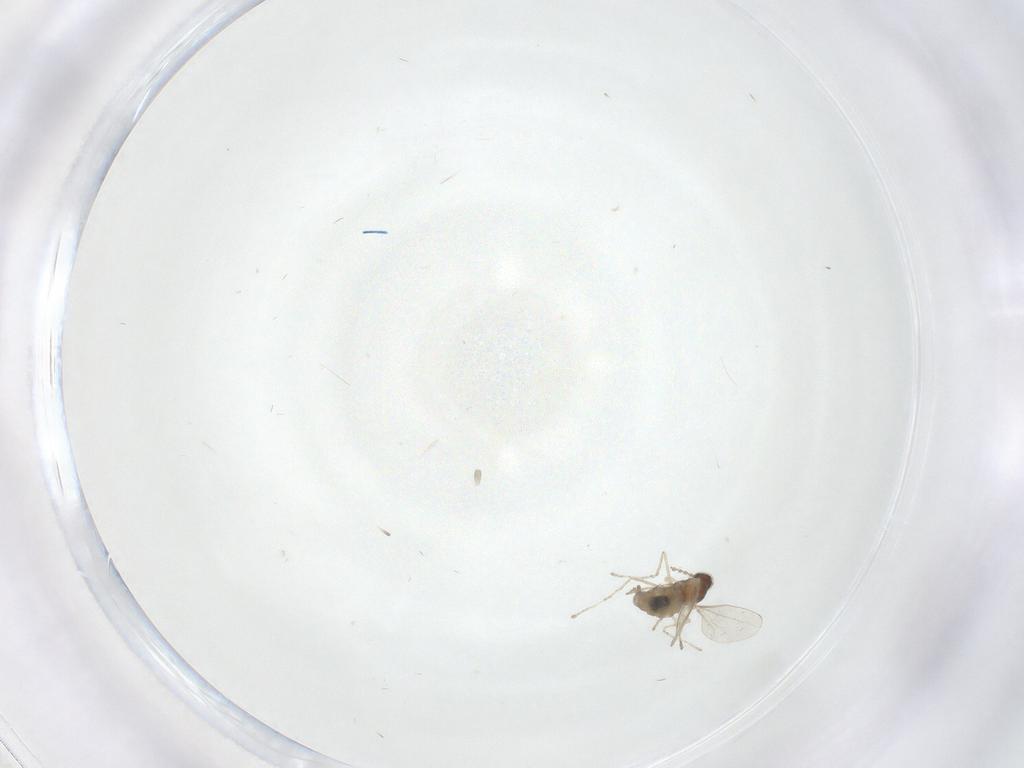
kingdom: Animalia
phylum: Arthropoda
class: Insecta
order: Diptera
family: Cecidomyiidae
